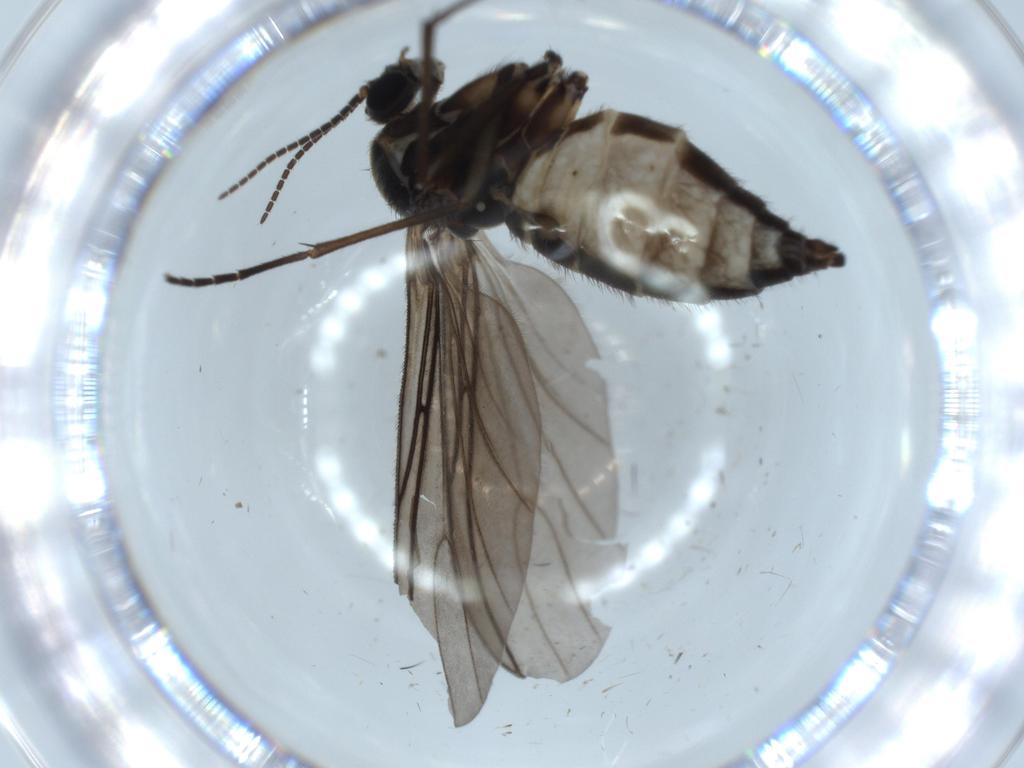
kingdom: Animalia
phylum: Arthropoda
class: Insecta
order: Diptera
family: Sciaridae
